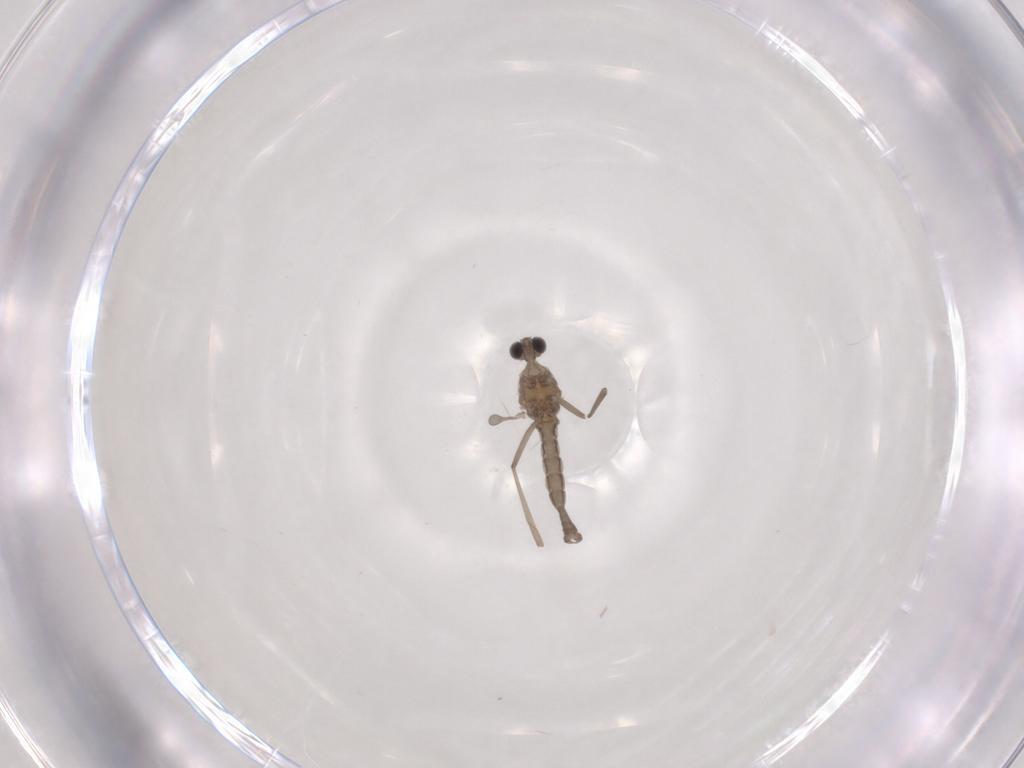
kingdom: Animalia
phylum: Arthropoda
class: Insecta
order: Diptera
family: Cecidomyiidae
